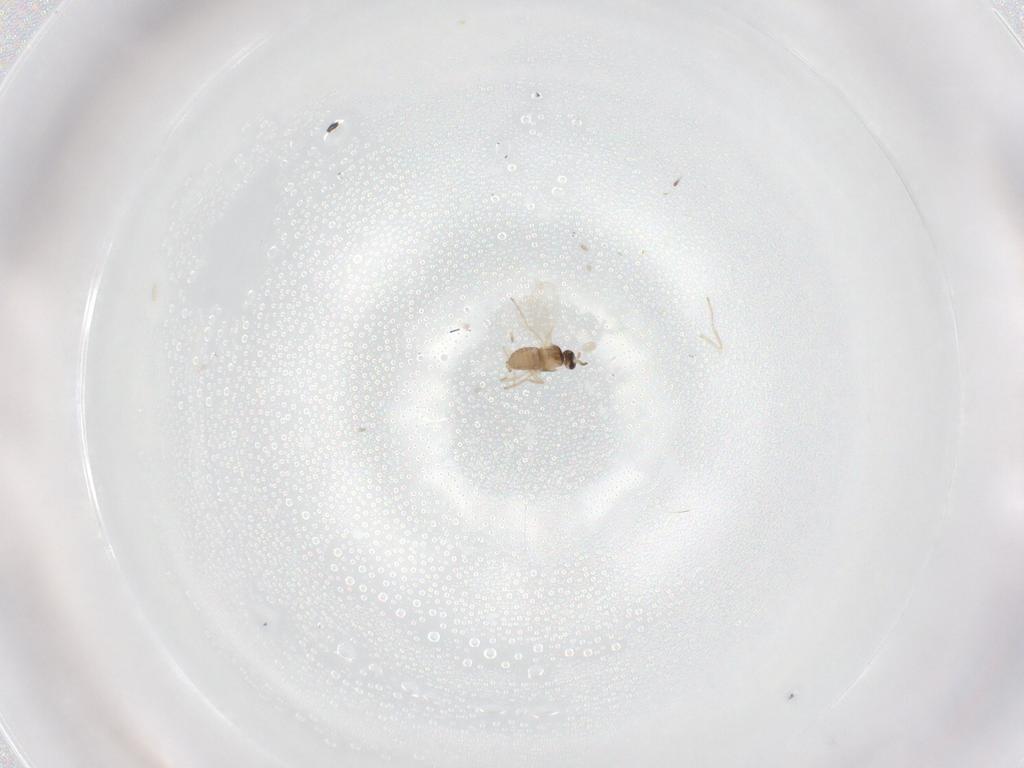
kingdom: Animalia
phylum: Arthropoda
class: Insecta
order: Diptera
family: Cecidomyiidae
